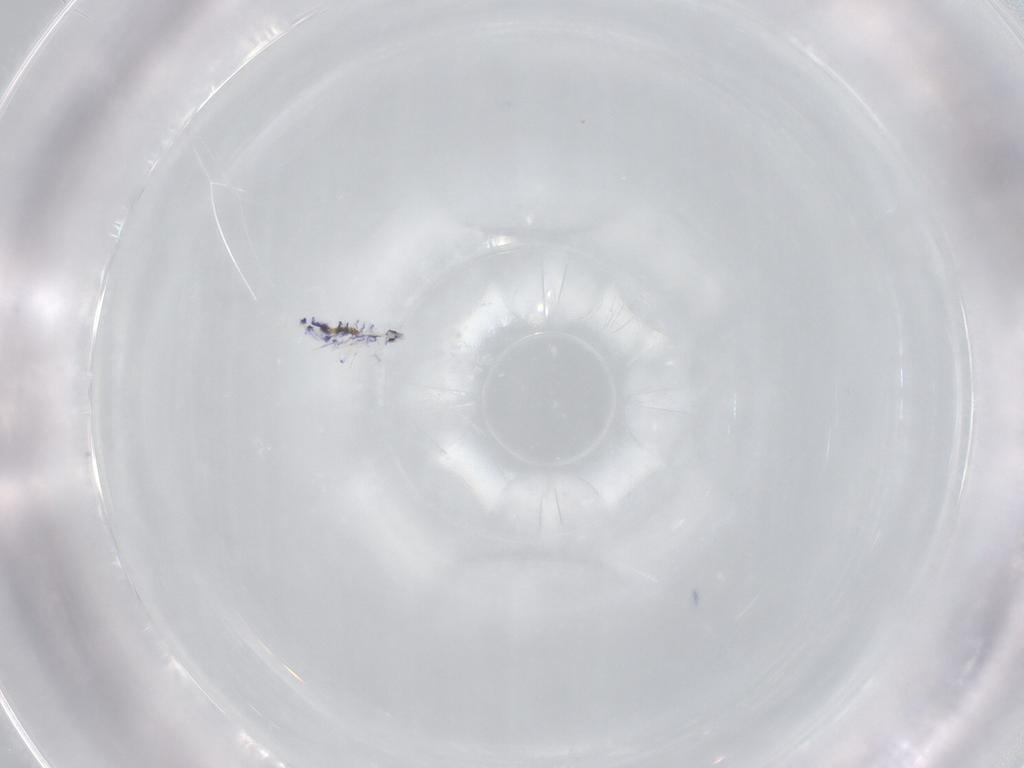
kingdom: Animalia
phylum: Arthropoda
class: Collembola
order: Entomobryomorpha
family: Entomobryidae
